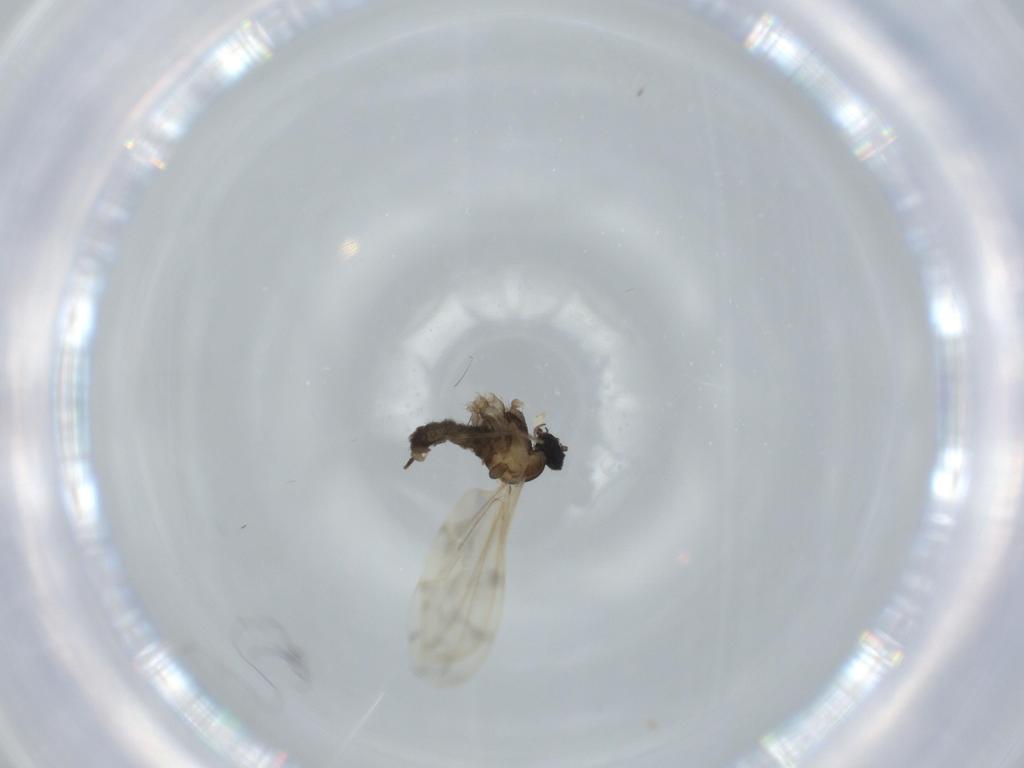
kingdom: Animalia
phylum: Arthropoda
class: Insecta
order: Diptera
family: Cecidomyiidae
